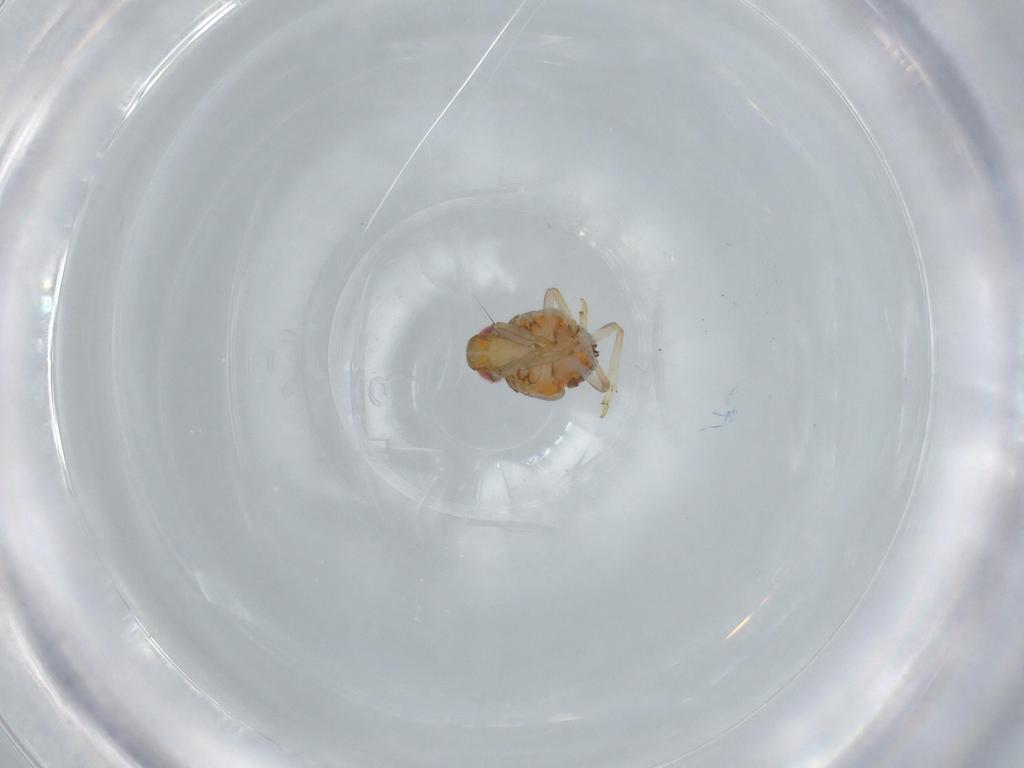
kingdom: Animalia
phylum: Arthropoda
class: Insecta
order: Hemiptera
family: Issidae
